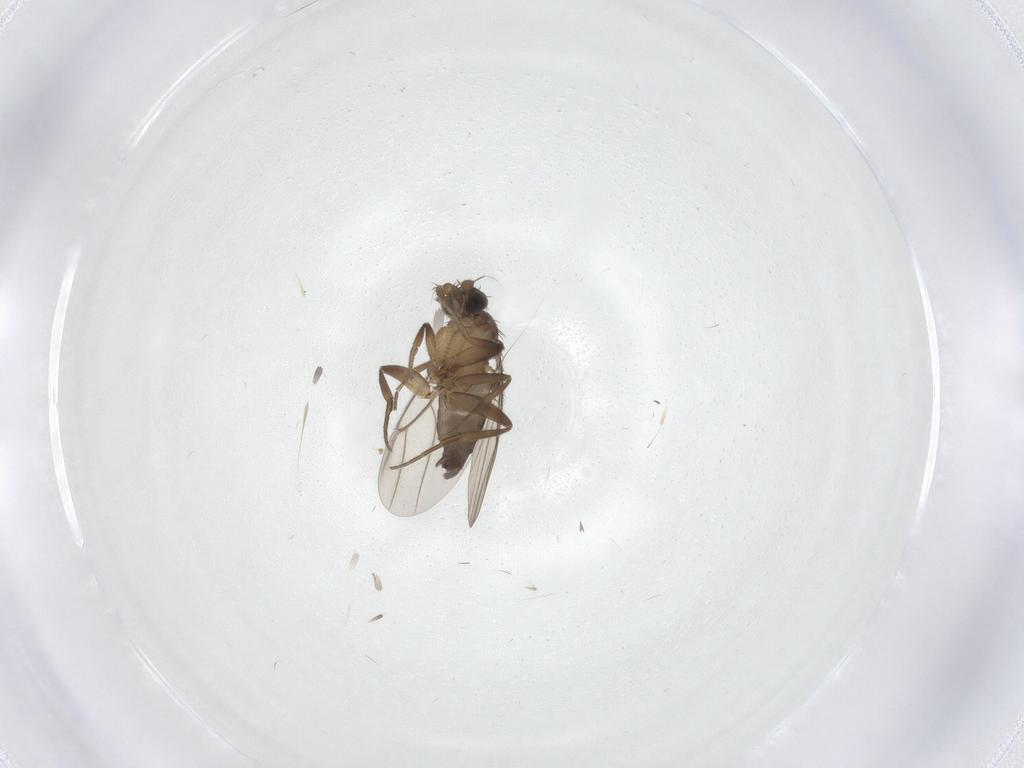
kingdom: Animalia
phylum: Arthropoda
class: Insecta
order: Diptera
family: Phoridae
